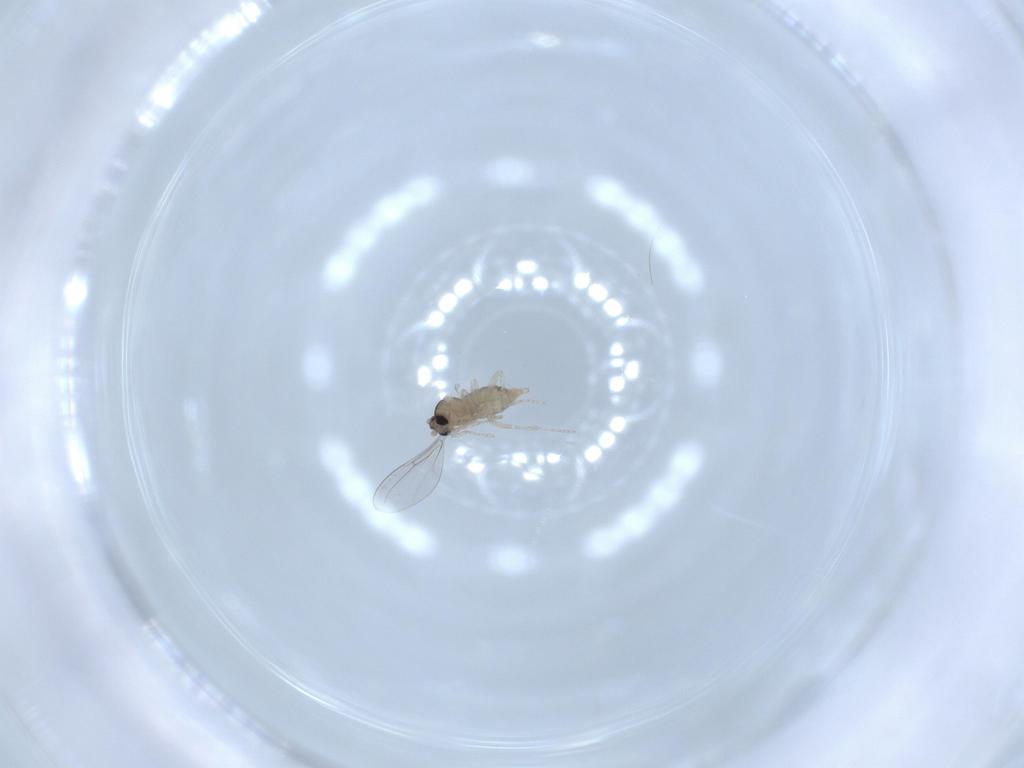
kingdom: Animalia
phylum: Arthropoda
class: Insecta
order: Diptera
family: Cecidomyiidae
